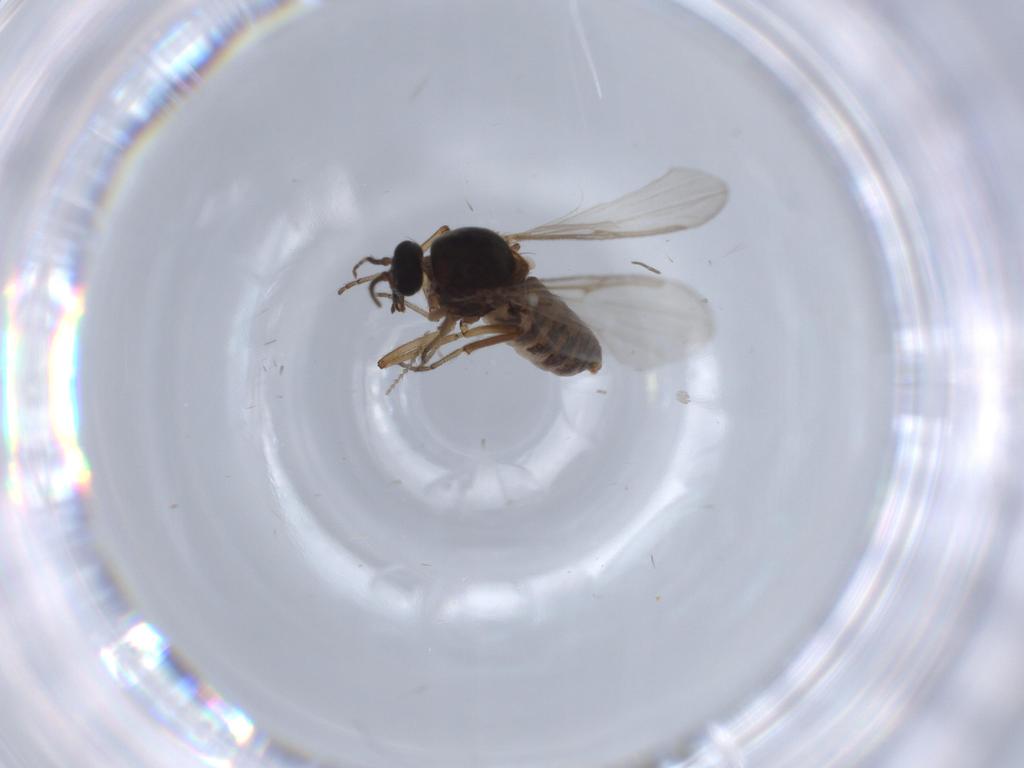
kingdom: Animalia
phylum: Arthropoda
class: Insecta
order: Diptera
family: Ceratopogonidae
